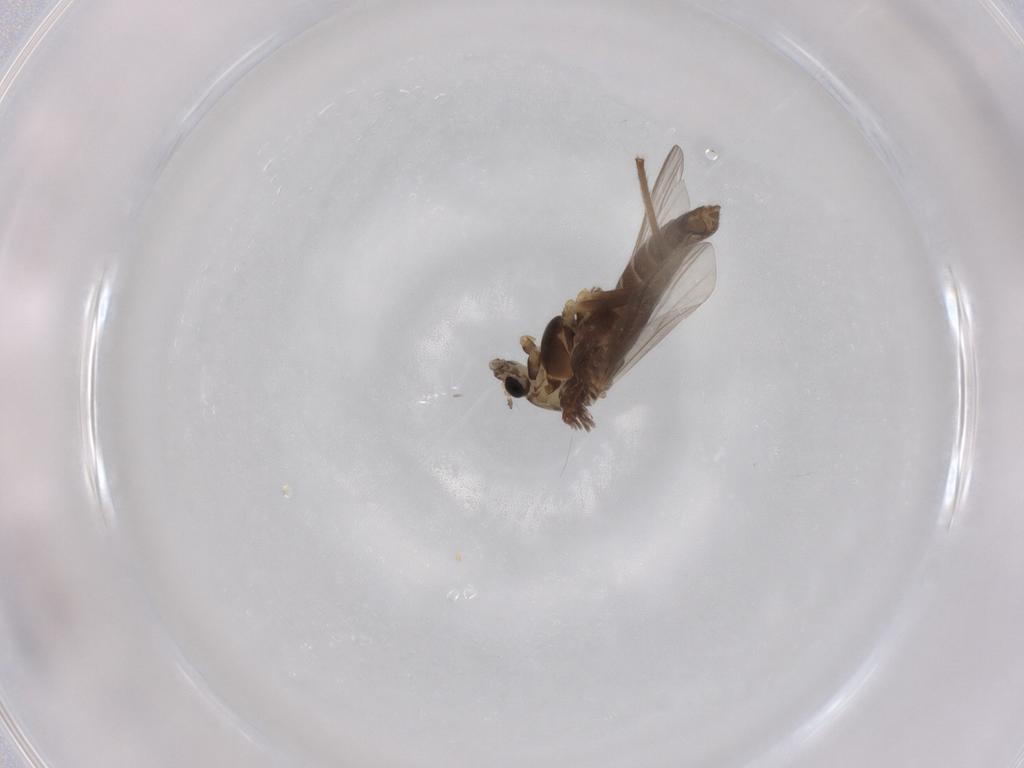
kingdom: Animalia
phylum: Arthropoda
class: Insecta
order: Diptera
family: Chironomidae
